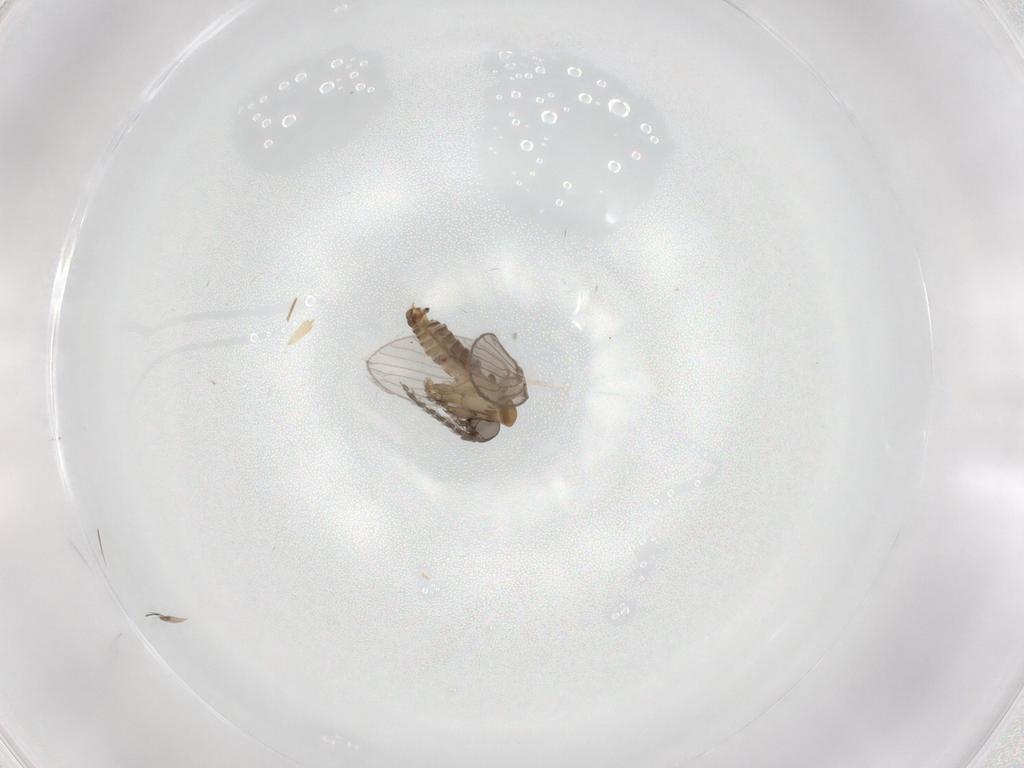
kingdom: Animalia
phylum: Arthropoda
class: Insecta
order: Diptera
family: Psychodidae
